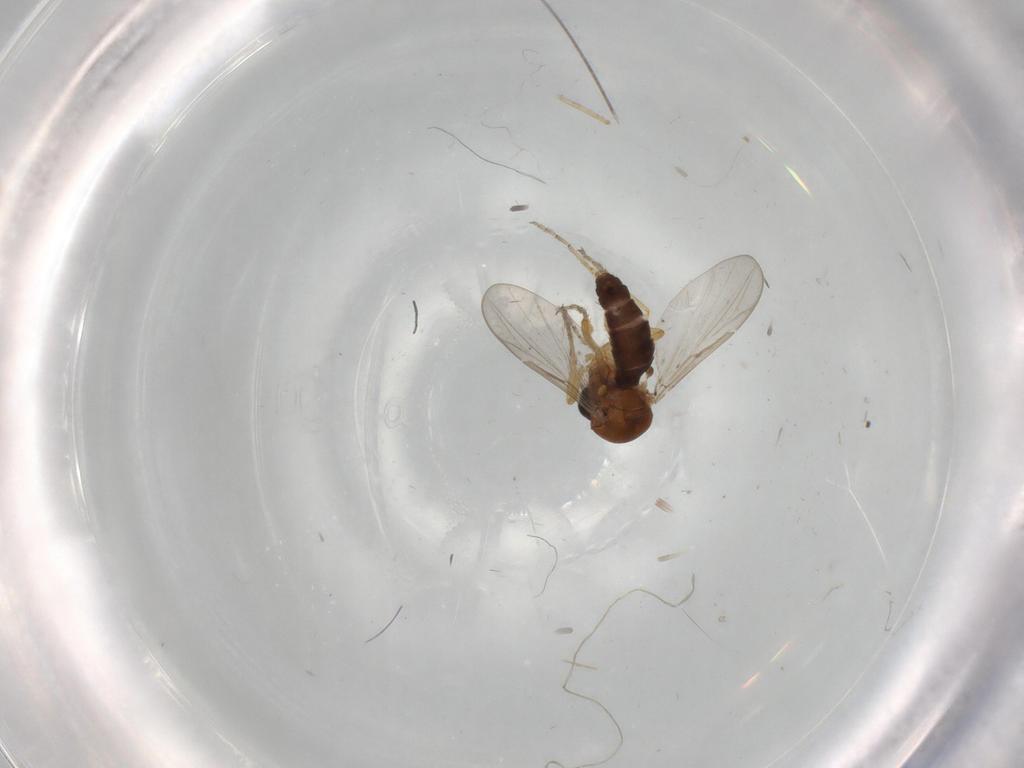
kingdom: Animalia
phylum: Arthropoda
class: Insecta
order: Diptera
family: Ceratopogonidae
